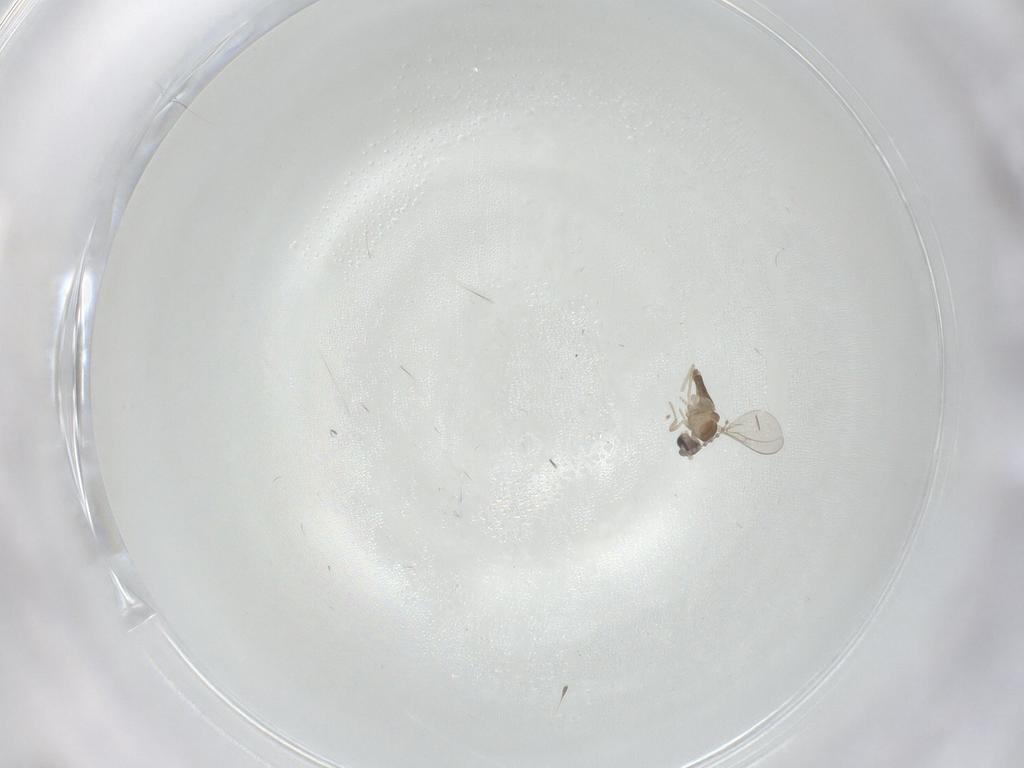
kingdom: Animalia
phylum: Arthropoda
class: Insecta
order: Diptera
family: Cecidomyiidae
